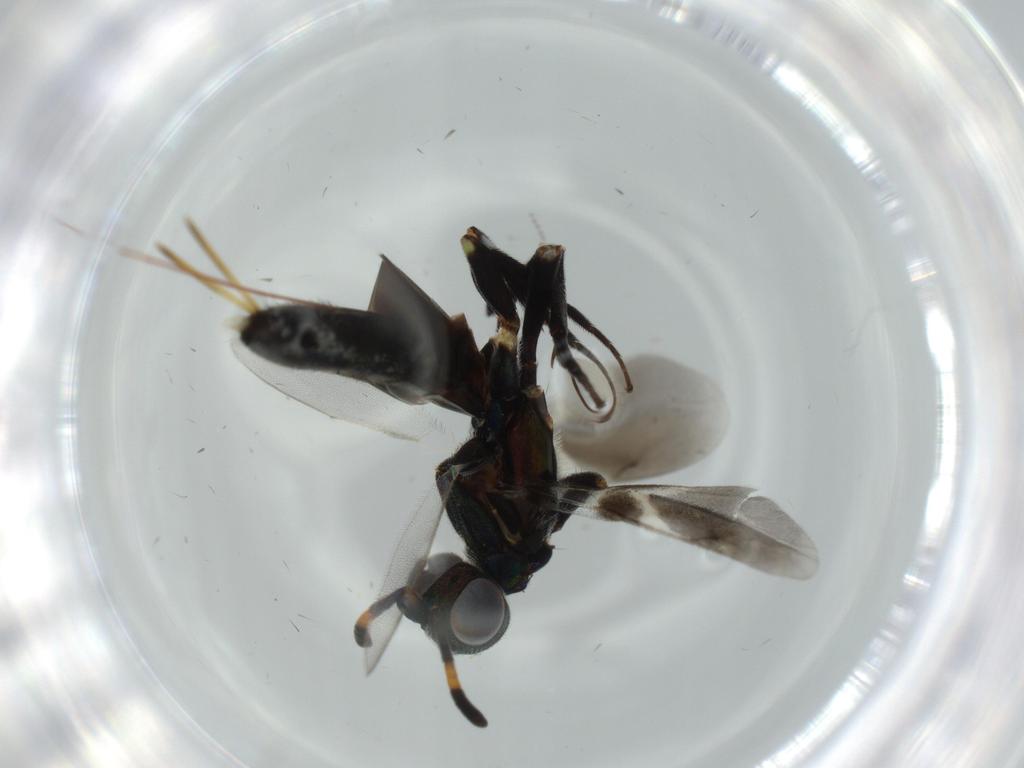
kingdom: Animalia
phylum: Arthropoda
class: Insecta
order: Hymenoptera
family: Eupelmidae
